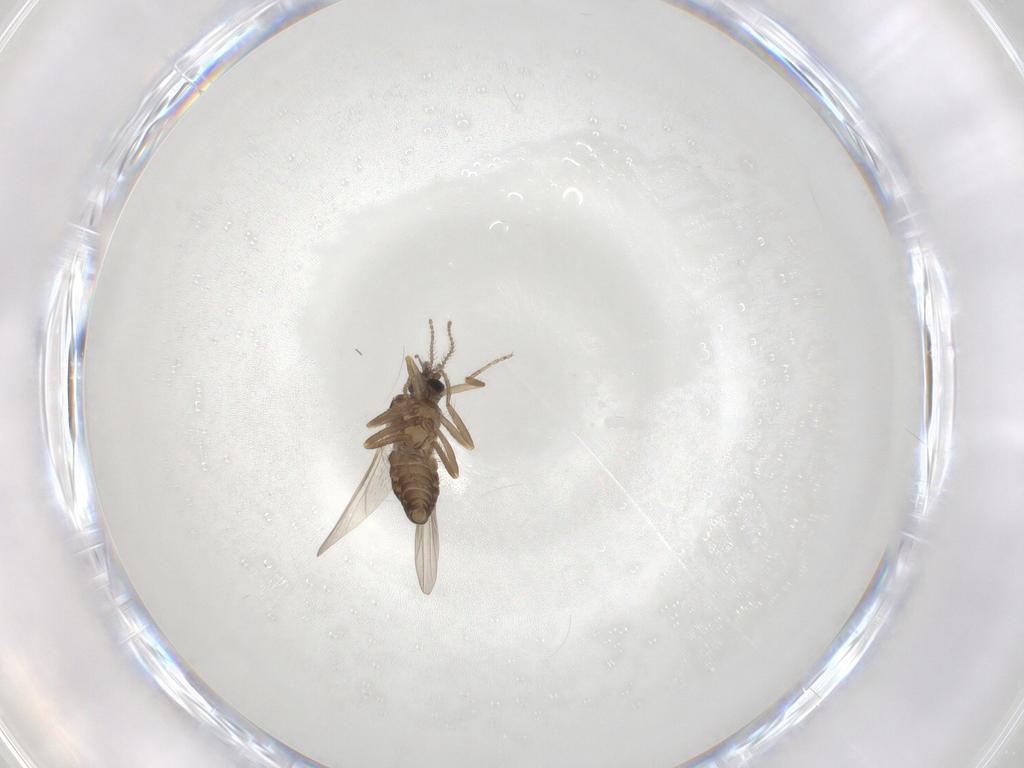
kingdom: Animalia
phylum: Arthropoda
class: Insecta
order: Diptera
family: Ceratopogonidae
